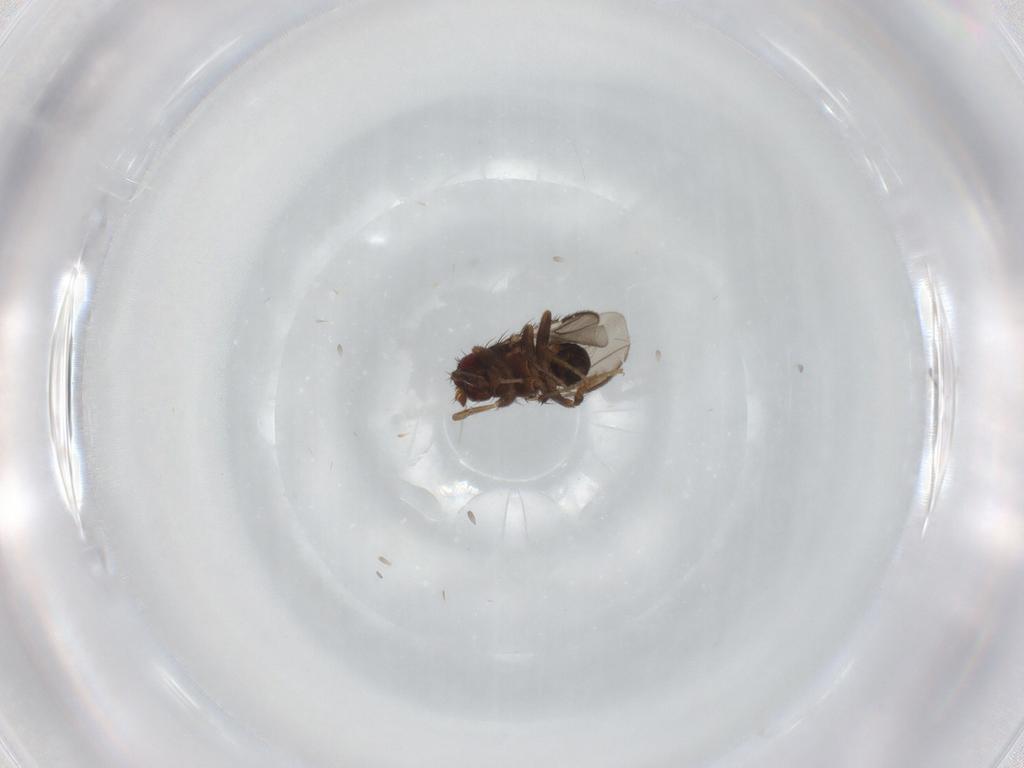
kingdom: Animalia
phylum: Arthropoda
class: Insecta
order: Diptera
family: Sphaeroceridae
